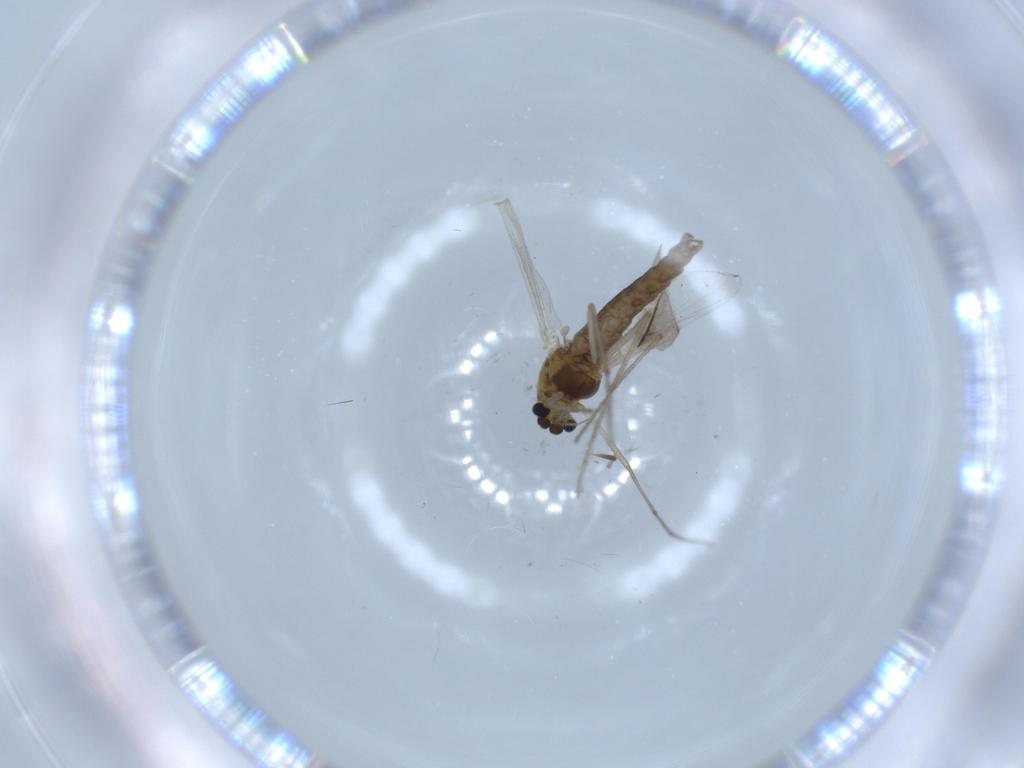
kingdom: Animalia
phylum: Arthropoda
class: Insecta
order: Diptera
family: Chironomidae
